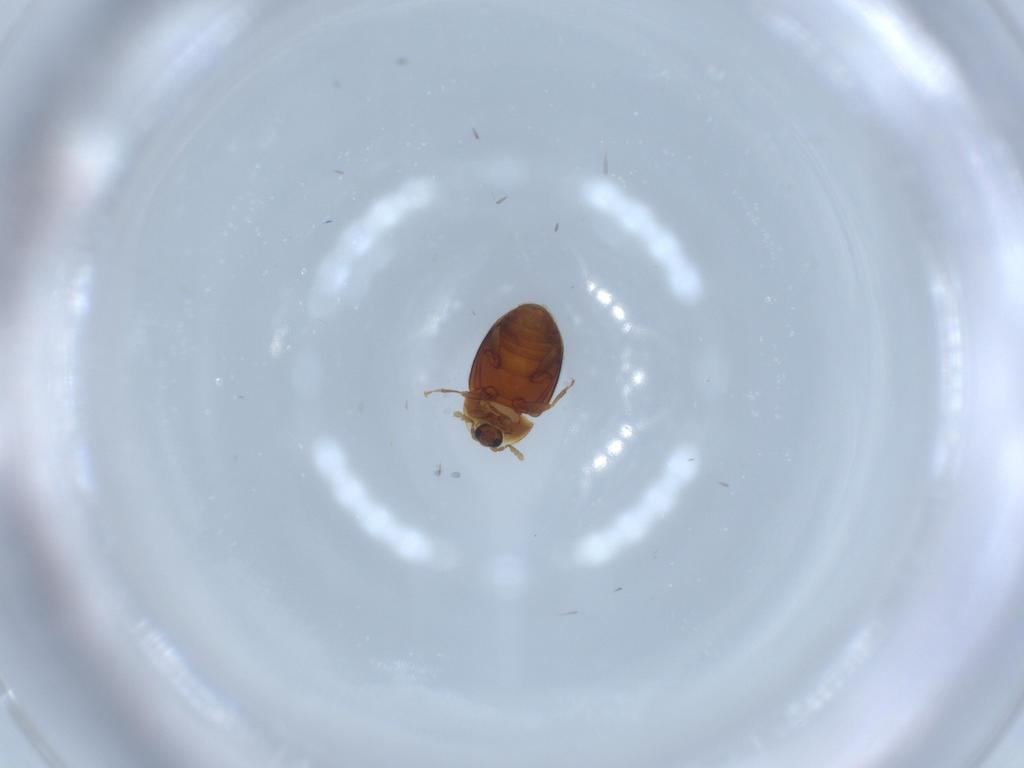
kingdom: Animalia
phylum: Arthropoda
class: Insecta
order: Coleoptera
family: Corylophidae
